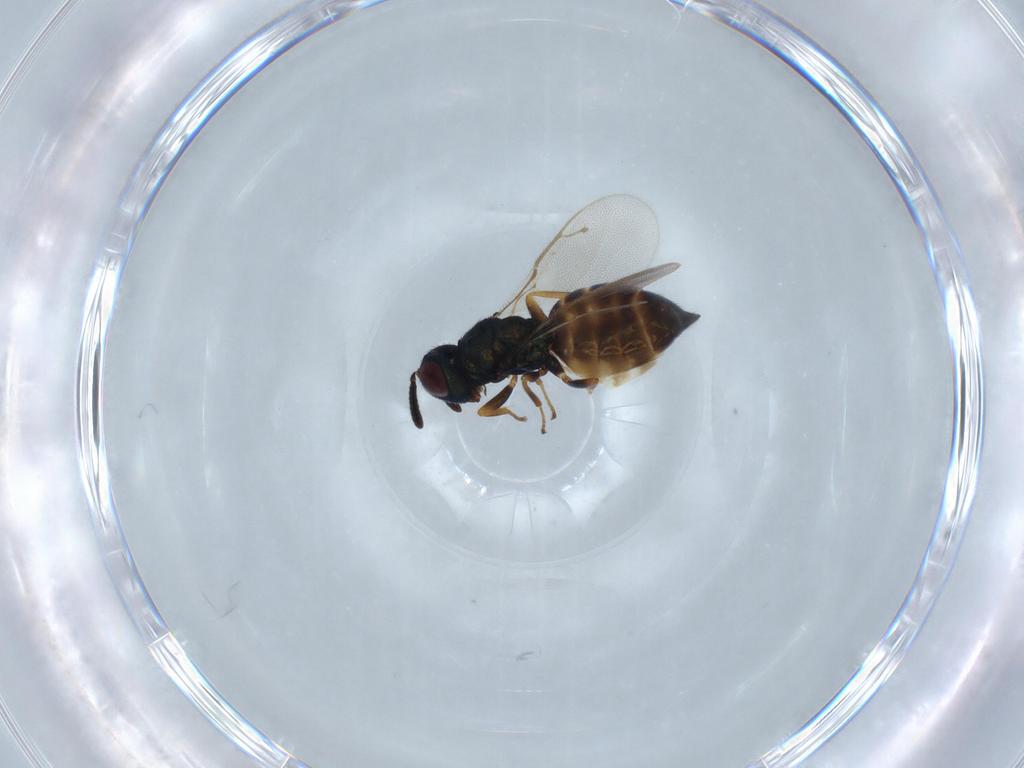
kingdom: Animalia
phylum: Arthropoda
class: Insecta
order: Hymenoptera
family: Pteromalidae
